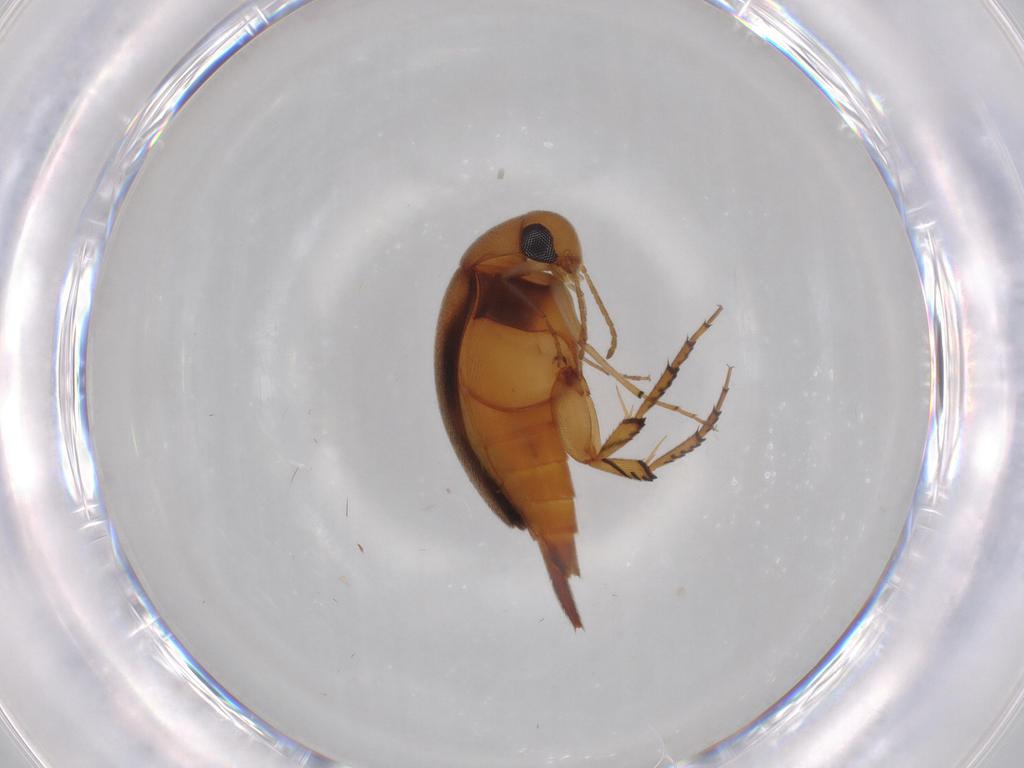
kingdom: Animalia
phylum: Arthropoda
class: Insecta
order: Coleoptera
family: Mordellidae
